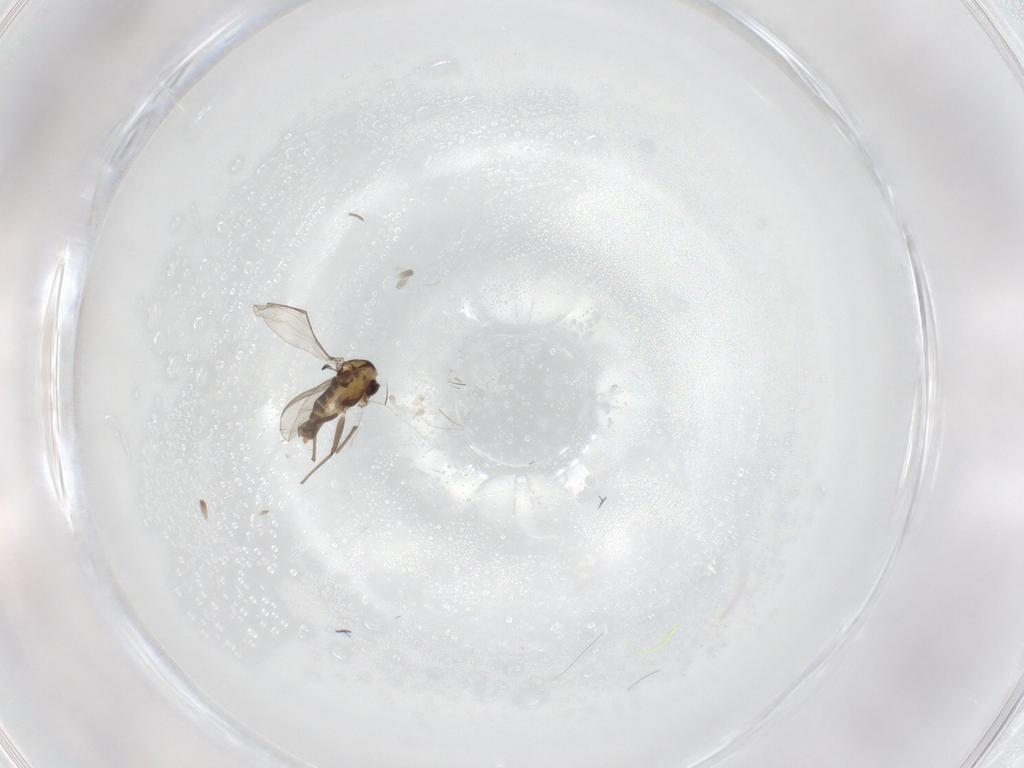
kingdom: Animalia
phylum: Arthropoda
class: Insecta
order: Diptera
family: Chironomidae
